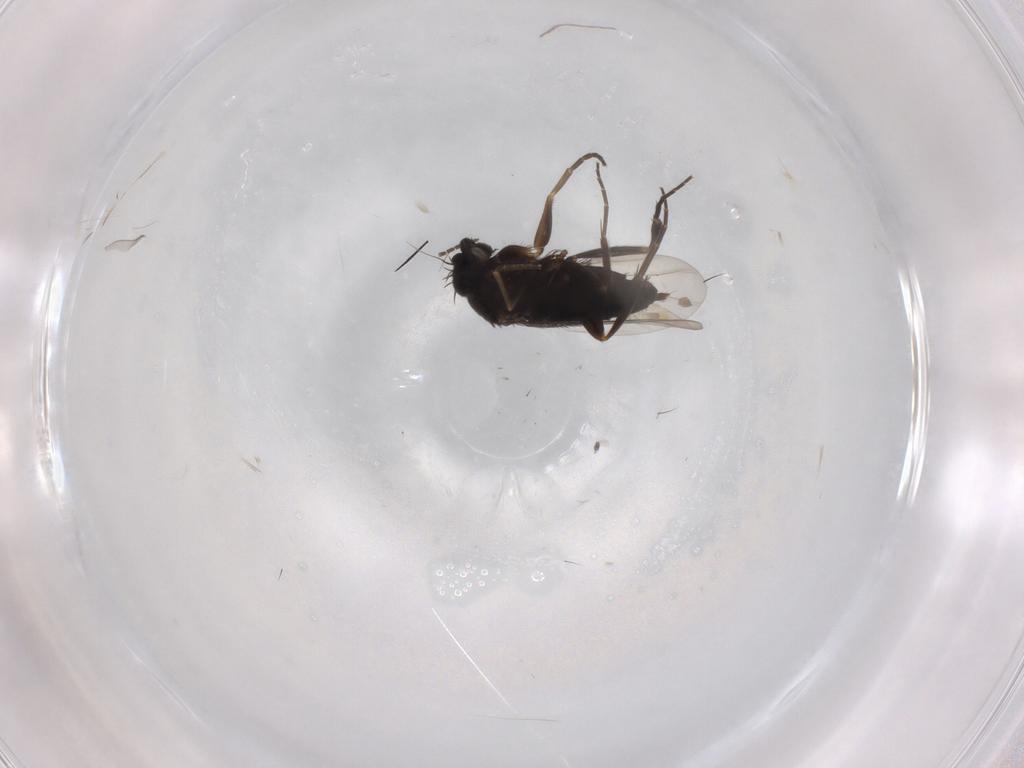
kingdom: Animalia
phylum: Arthropoda
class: Insecta
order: Diptera
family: Phoridae
